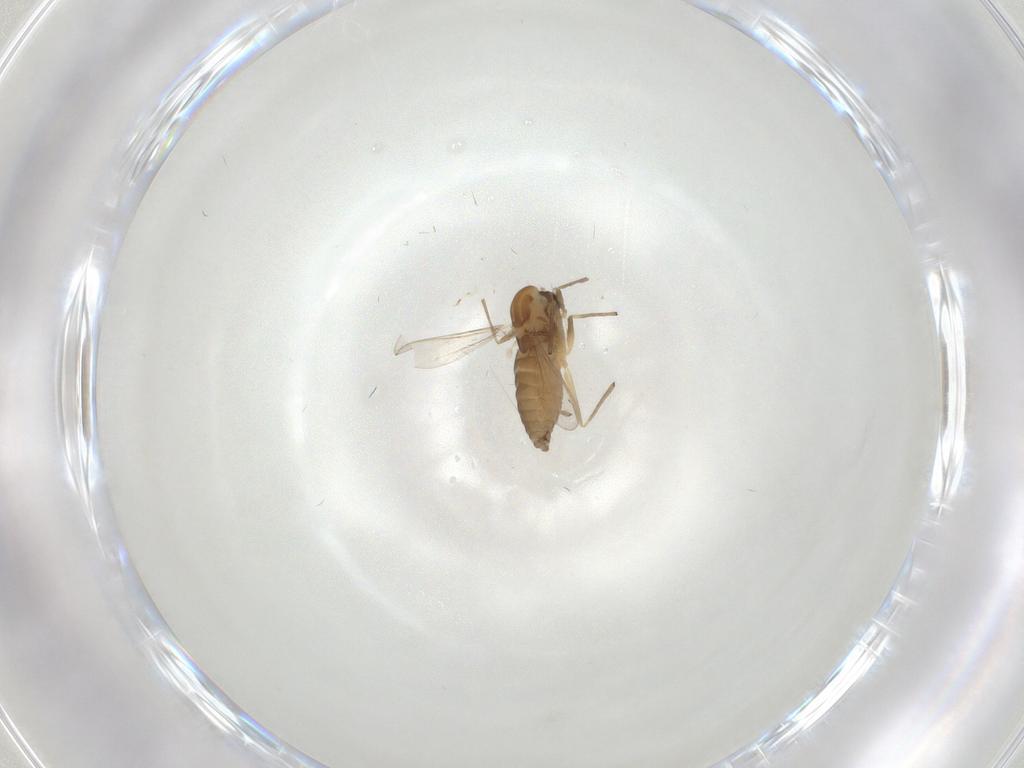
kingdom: Animalia
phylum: Arthropoda
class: Insecta
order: Diptera
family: Chironomidae
